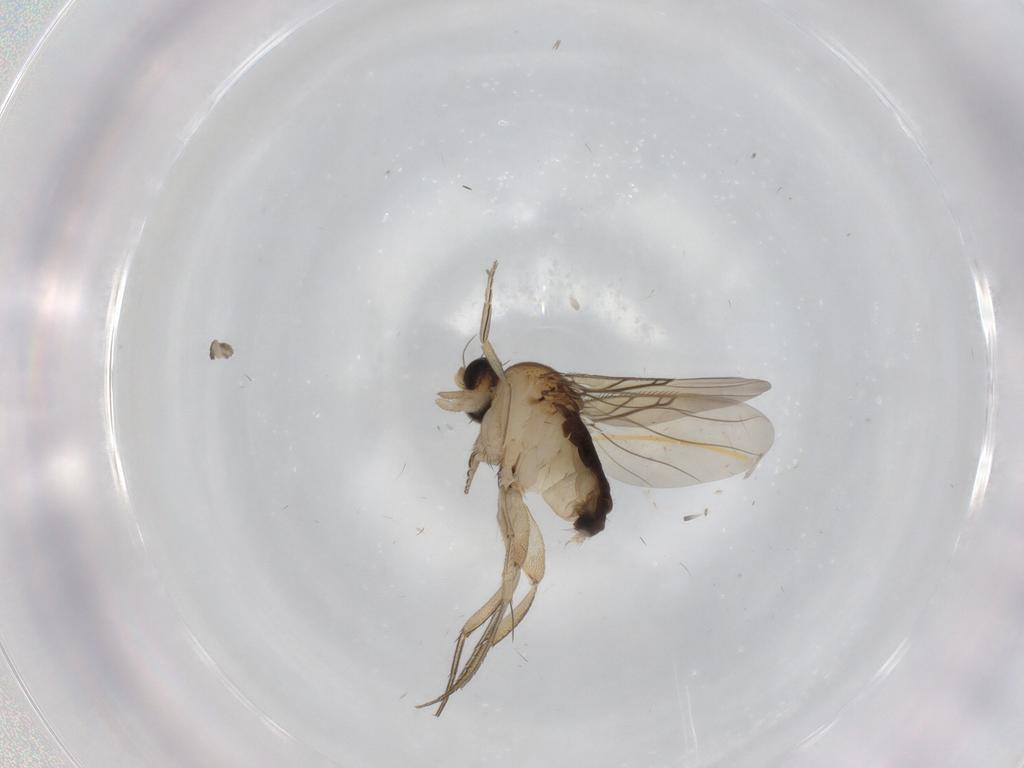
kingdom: Animalia
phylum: Arthropoda
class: Insecta
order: Diptera
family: Phoridae
